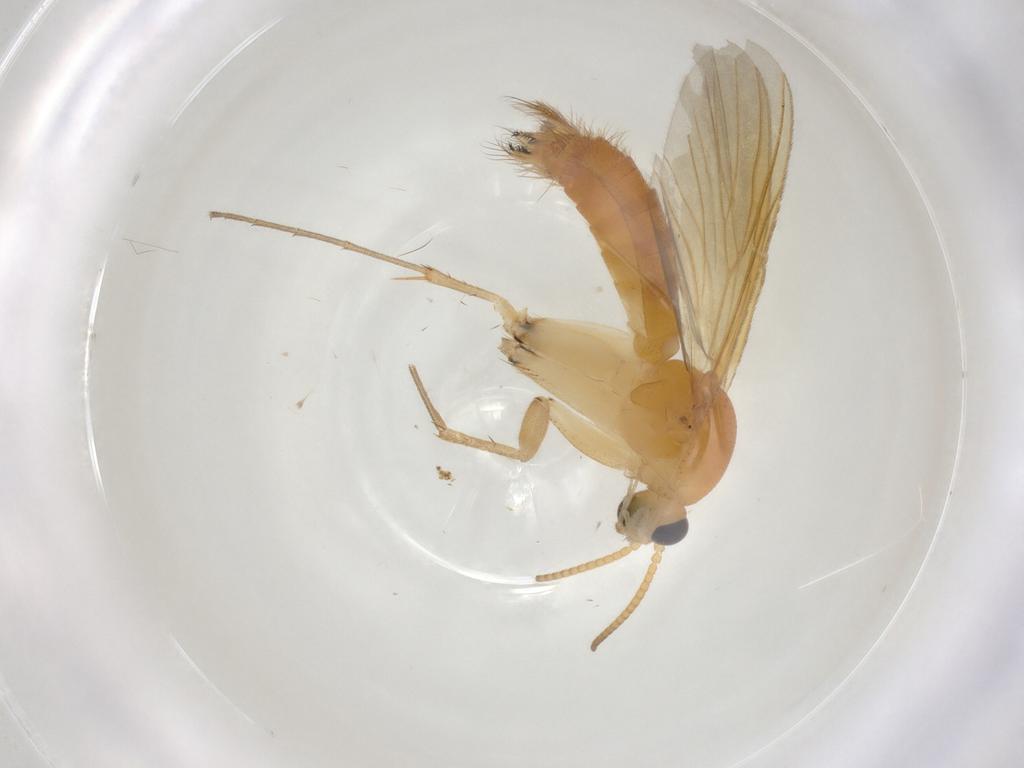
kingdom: Animalia
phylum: Arthropoda
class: Insecta
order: Diptera
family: Mycetophilidae
